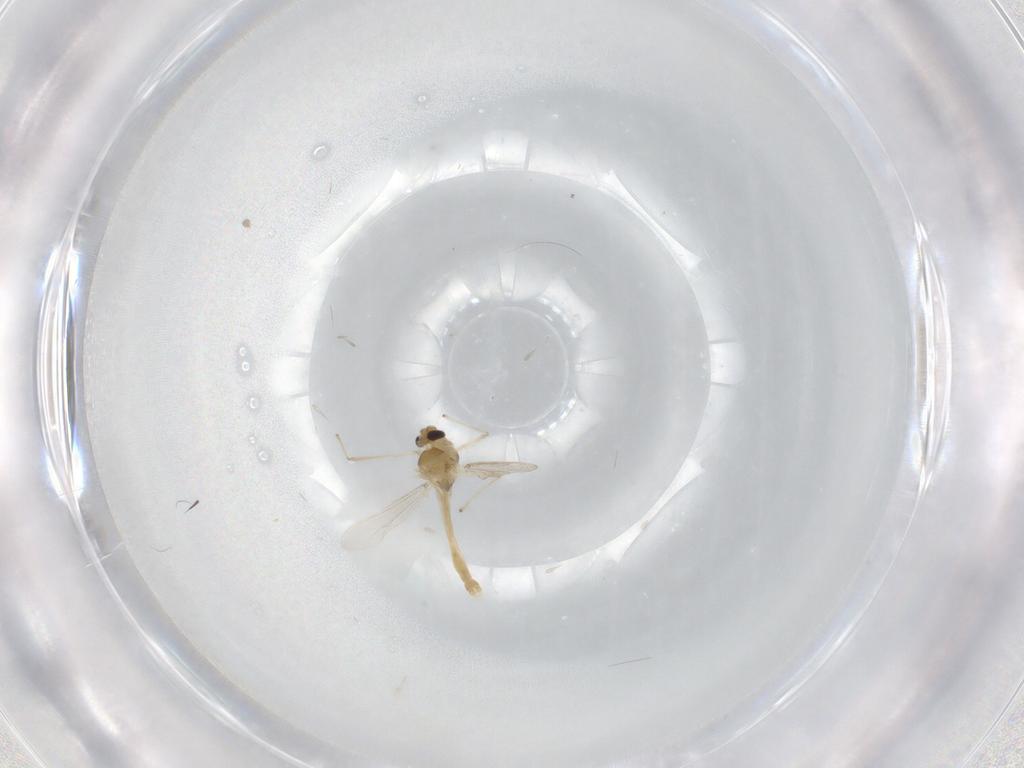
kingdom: Animalia
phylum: Arthropoda
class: Insecta
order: Diptera
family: Chironomidae
